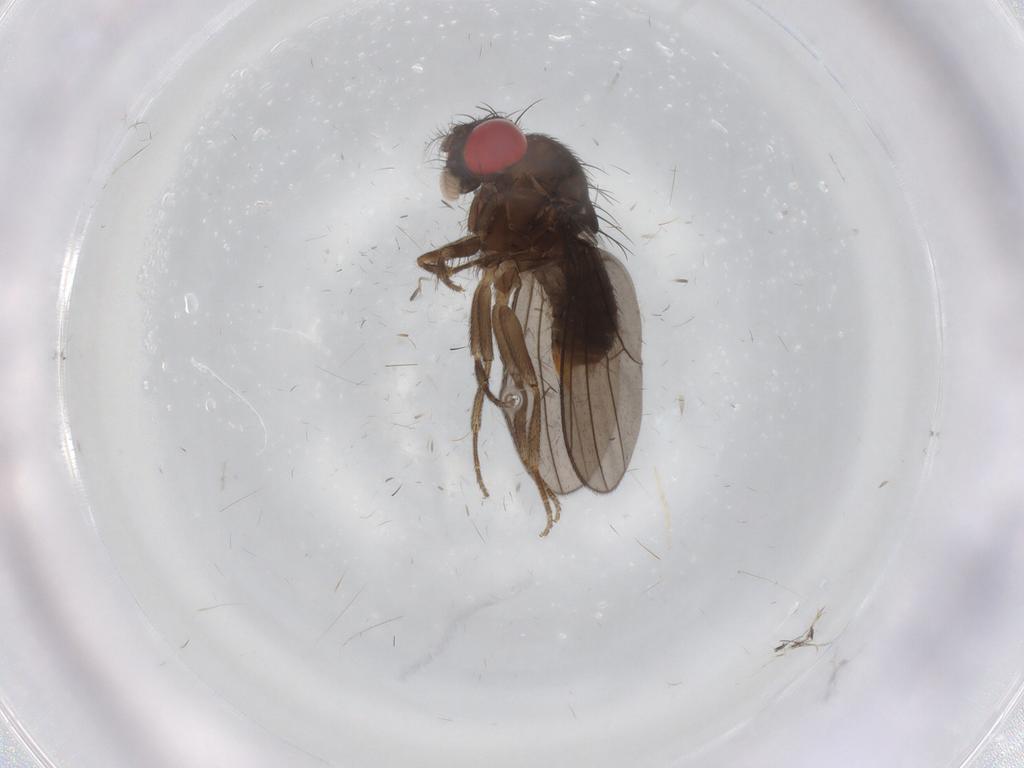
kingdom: Animalia
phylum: Arthropoda
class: Insecta
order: Diptera
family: Drosophilidae
